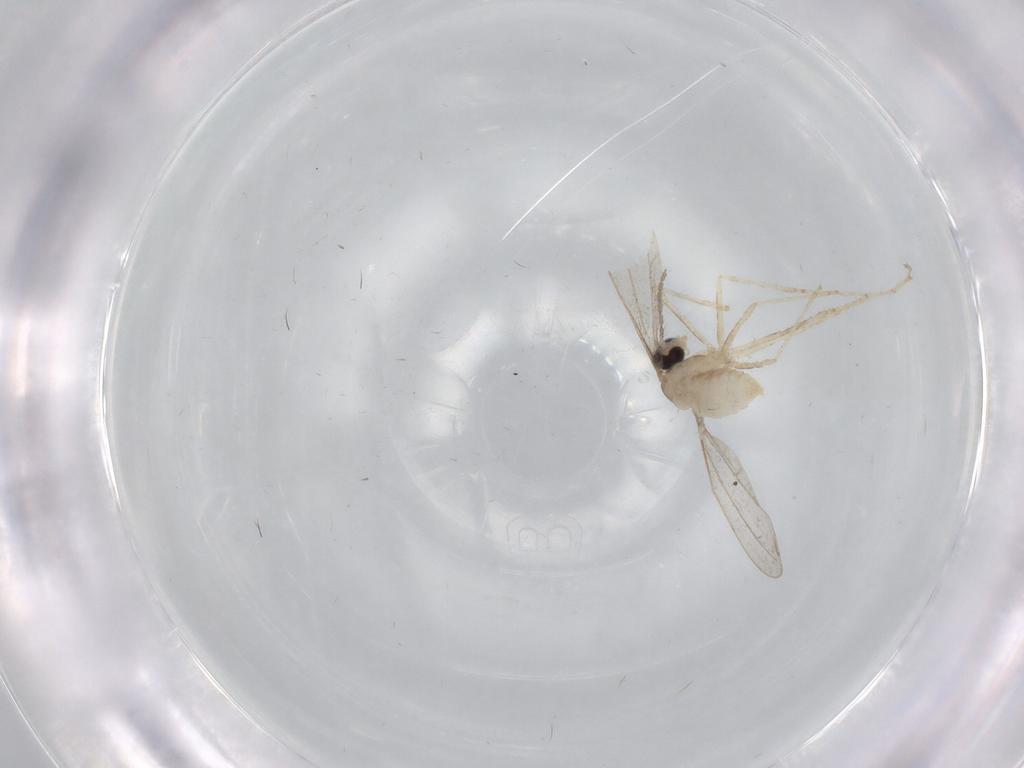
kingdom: Animalia
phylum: Arthropoda
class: Insecta
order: Diptera
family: Cecidomyiidae
